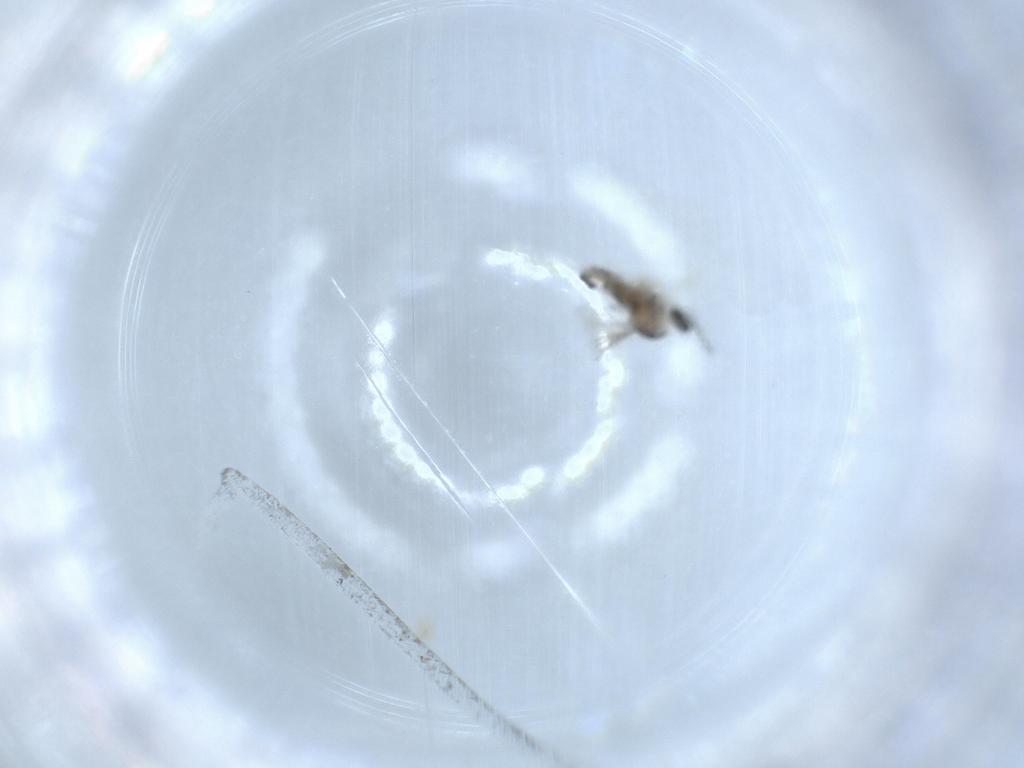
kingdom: Animalia
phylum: Arthropoda
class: Insecta
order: Diptera
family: Cecidomyiidae
